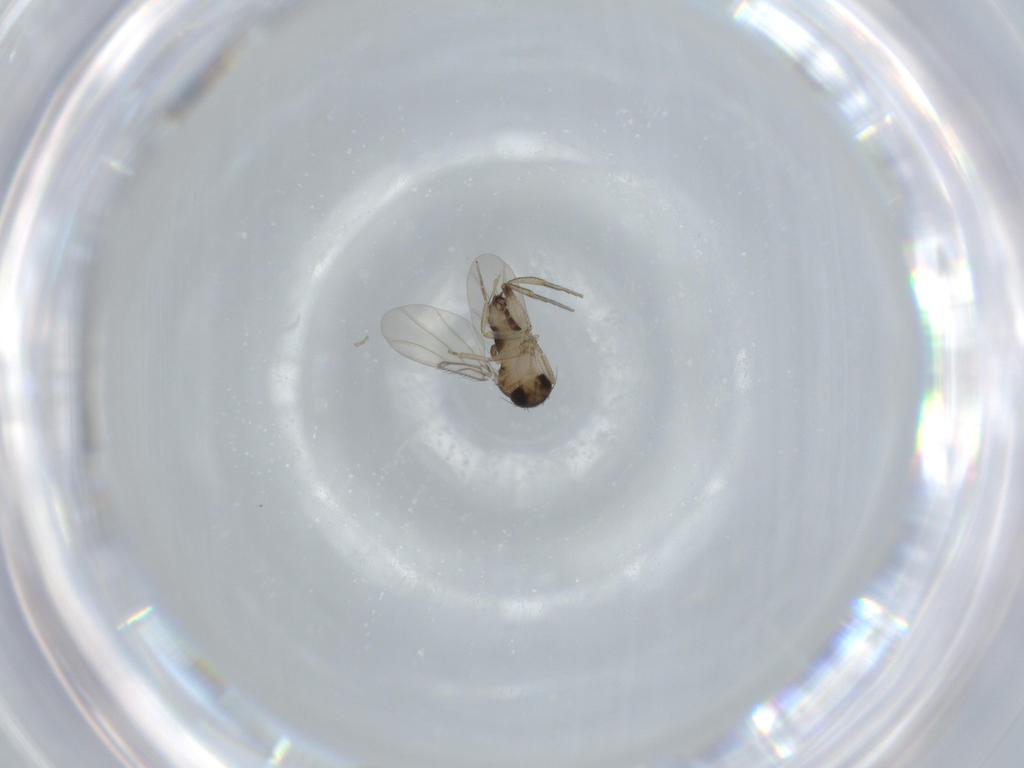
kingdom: Animalia
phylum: Arthropoda
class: Insecta
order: Diptera
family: Phoridae
